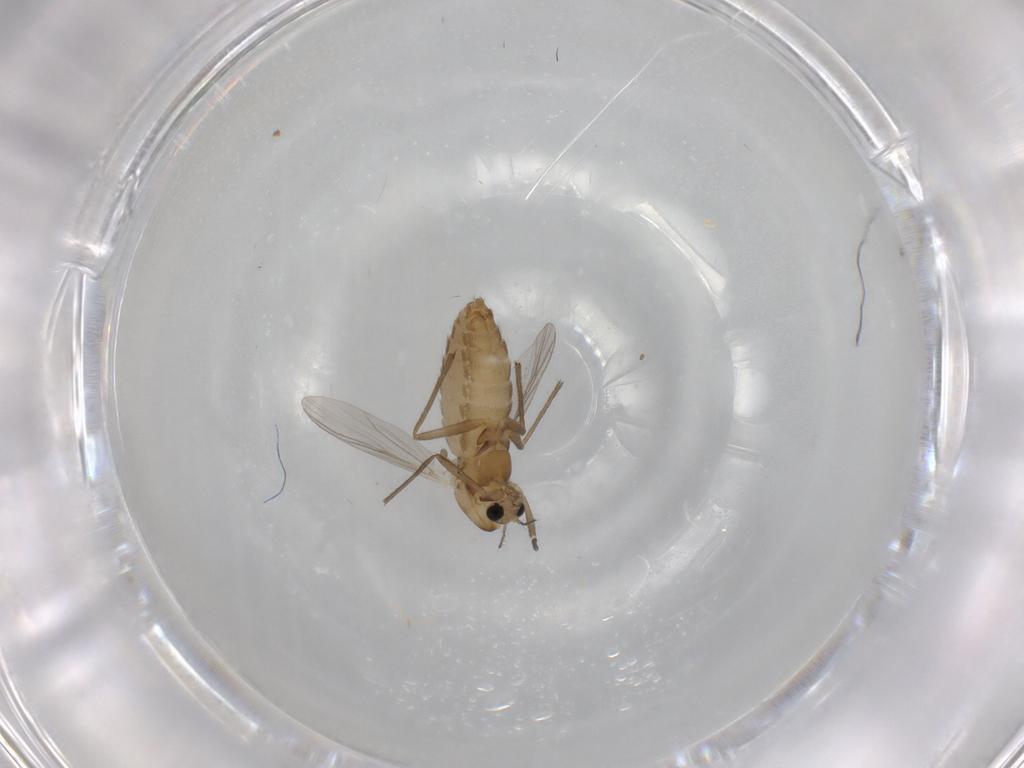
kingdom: Animalia
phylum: Arthropoda
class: Insecta
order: Diptera
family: Chironomidae
